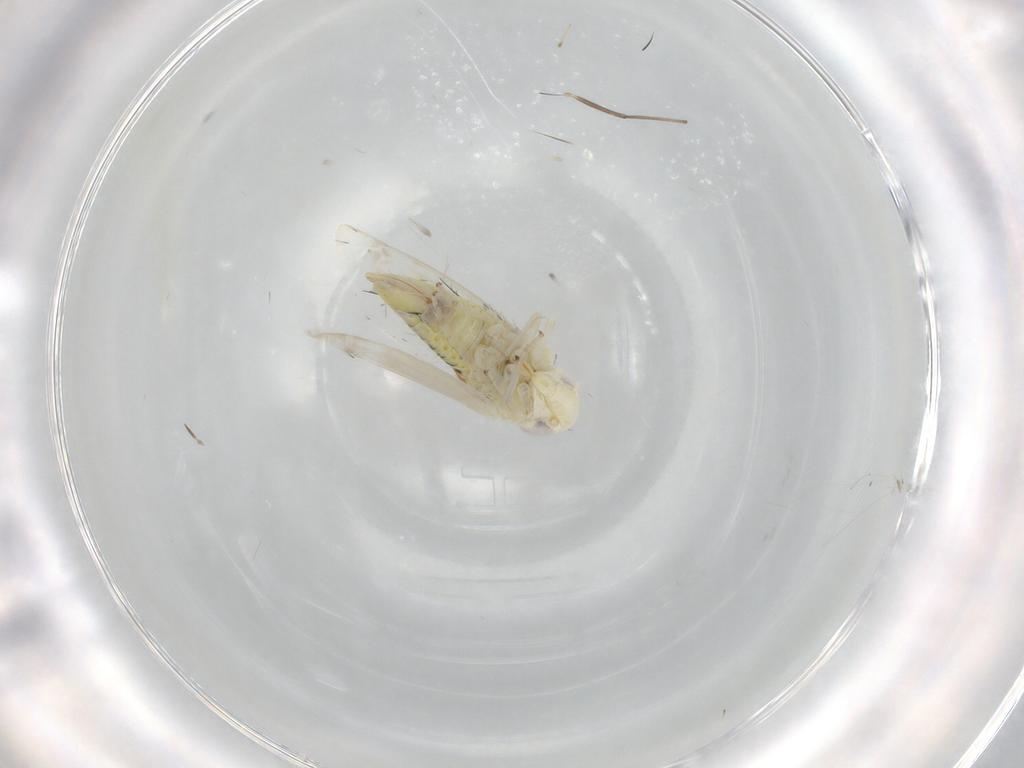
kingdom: Animalia
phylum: Arthropoda
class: Insecta
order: Hemiptera
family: Cicadellidae
